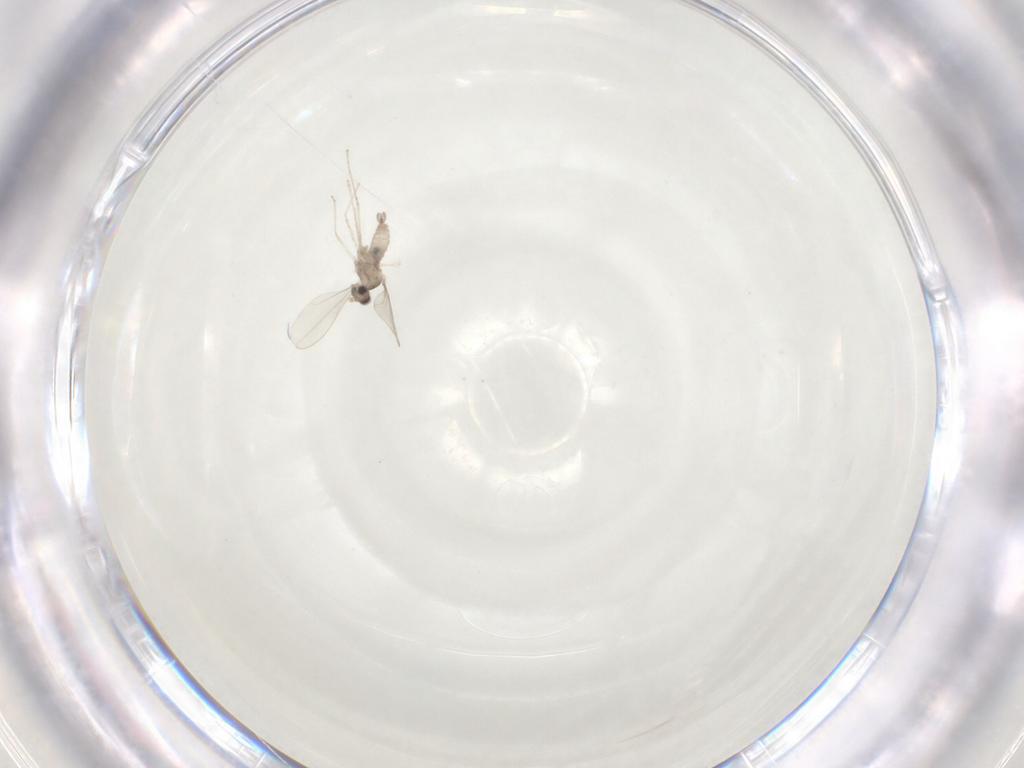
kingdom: Animalia
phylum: Arthropoda
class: Insecta
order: Diptera
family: Cecidomyiidae
